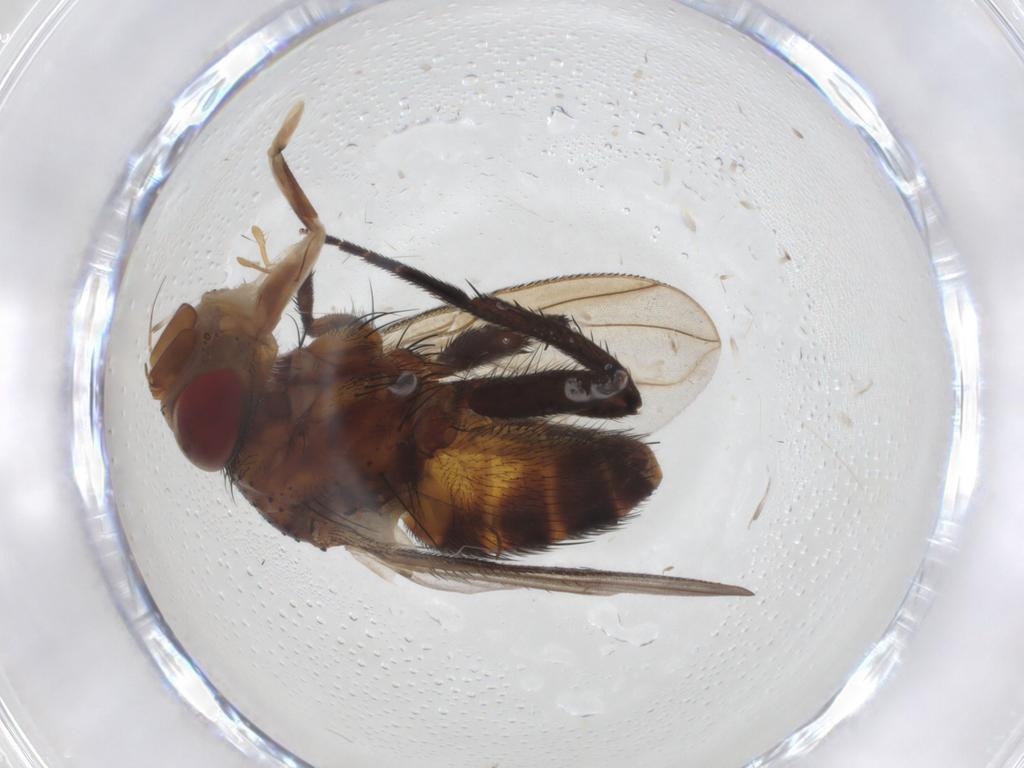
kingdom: Animalia
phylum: Arthropoda
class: Insecta
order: Diptera
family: Tachinidae
